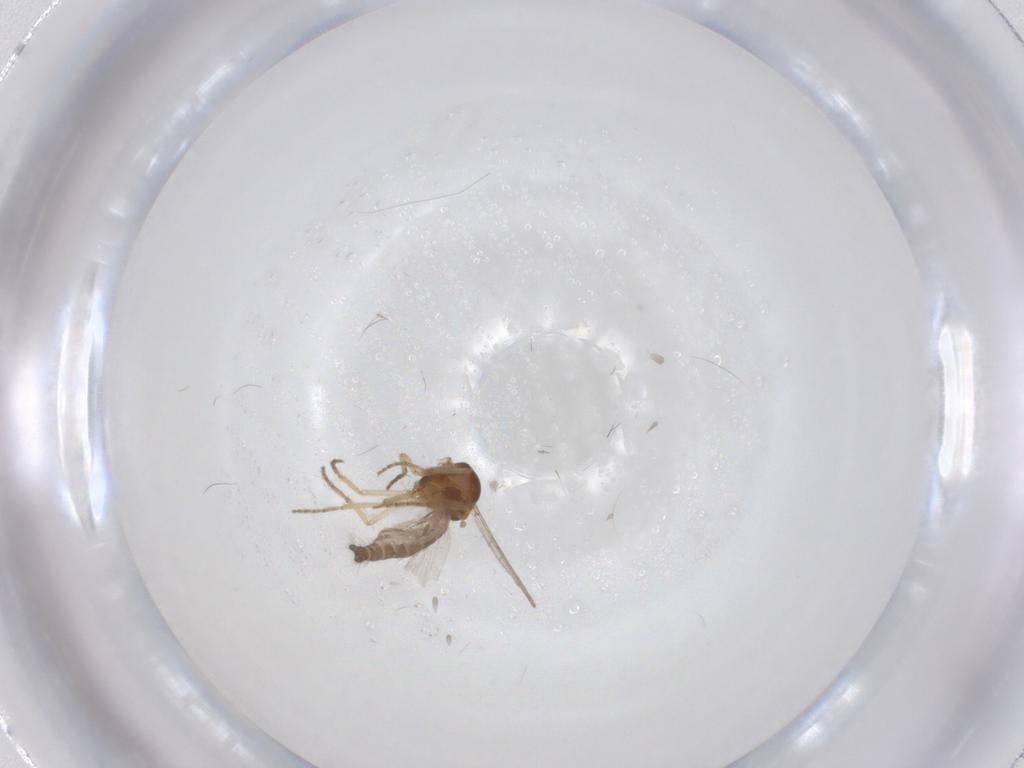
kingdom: Animalia
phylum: Arthropoda
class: Insecta
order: Diptera
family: Ceratopogonidae
